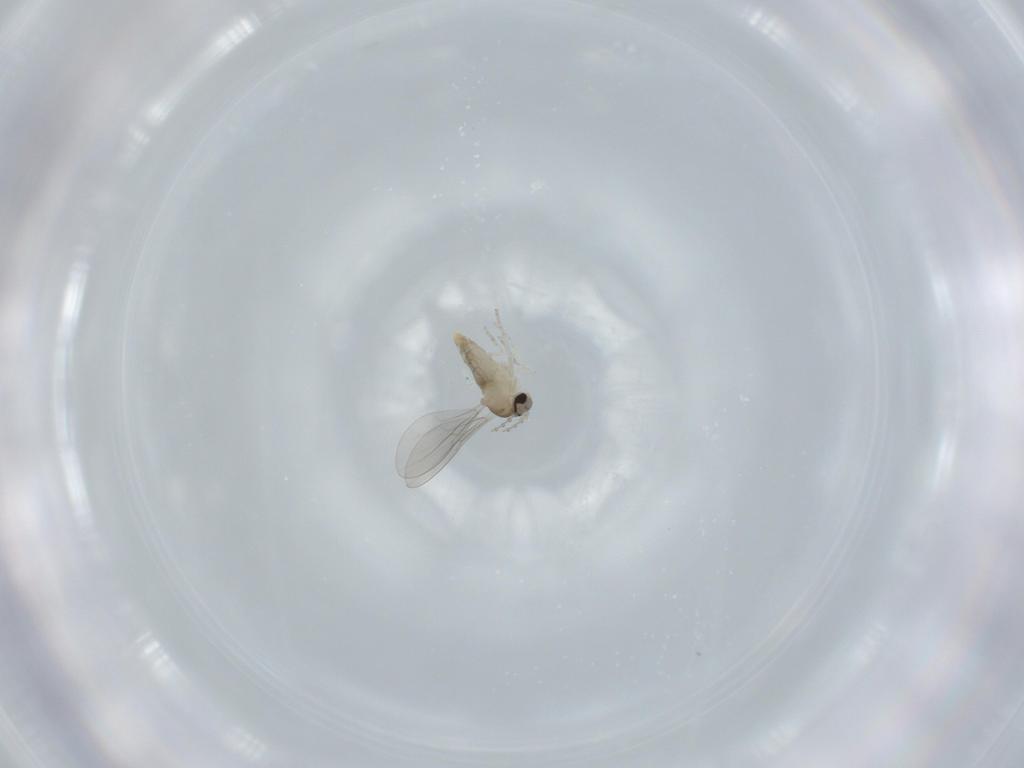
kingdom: Animalia
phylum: Arthropoda
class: Insecta
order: Diptera
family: Cecidomyiidae
